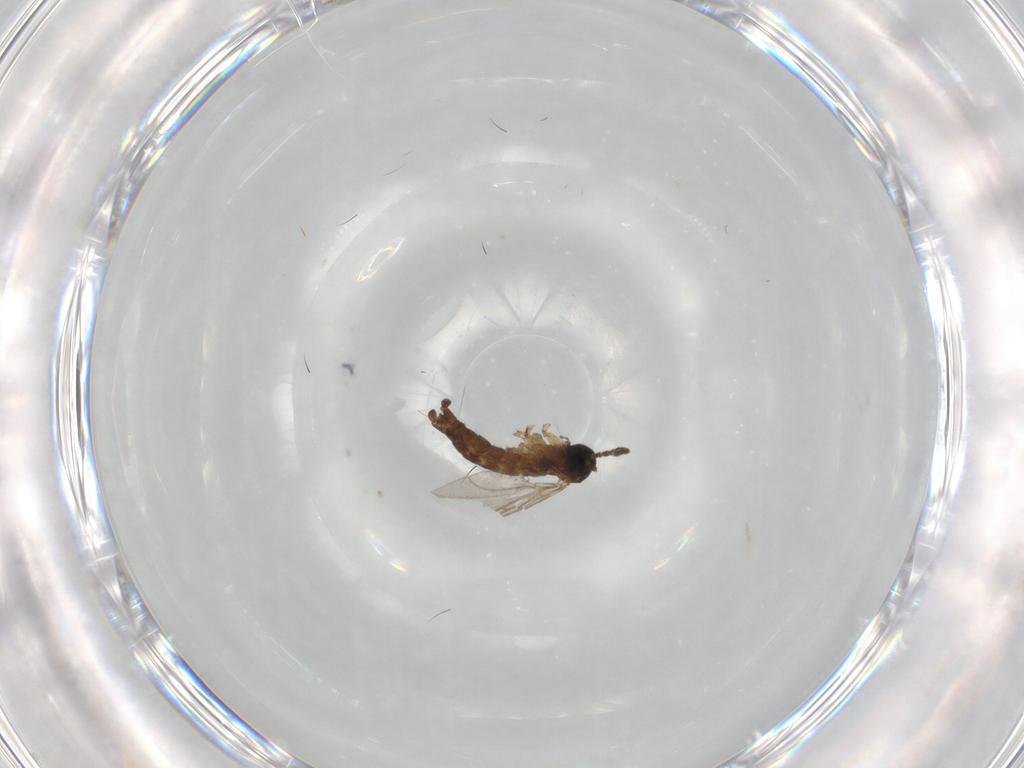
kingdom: Animalia
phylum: Arthropoda
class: Insecta
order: Diptera
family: Sciaridae
